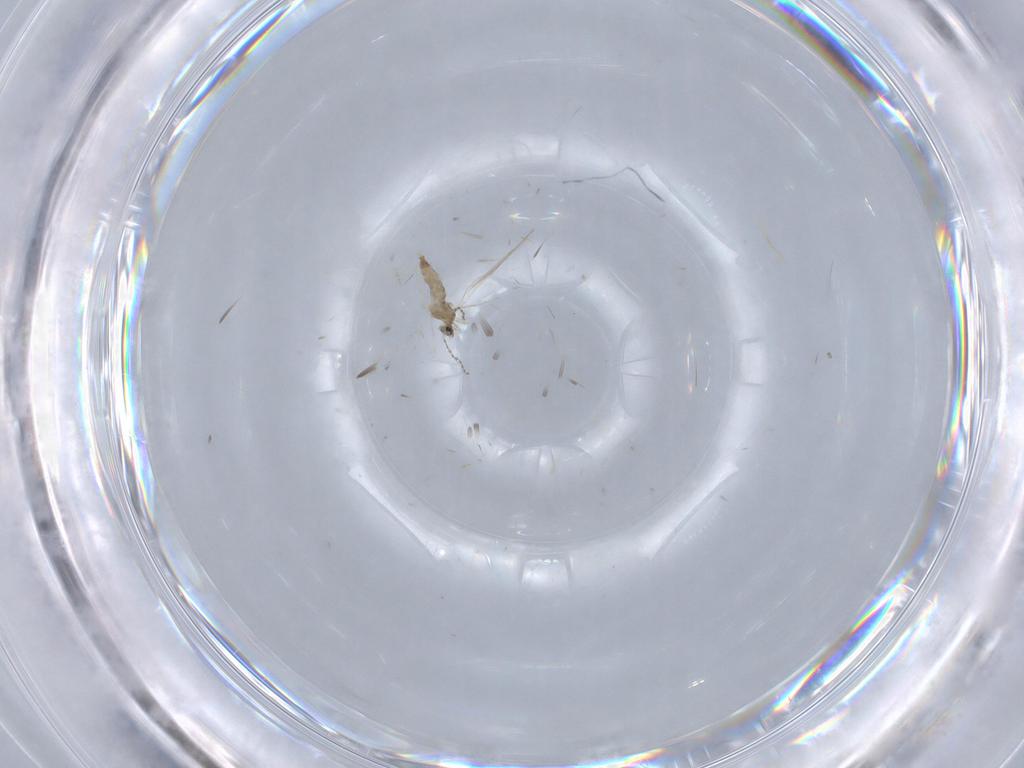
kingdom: Animalia
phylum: Arthropoda
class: Insecta
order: Diptera
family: Cecidomyiidae
